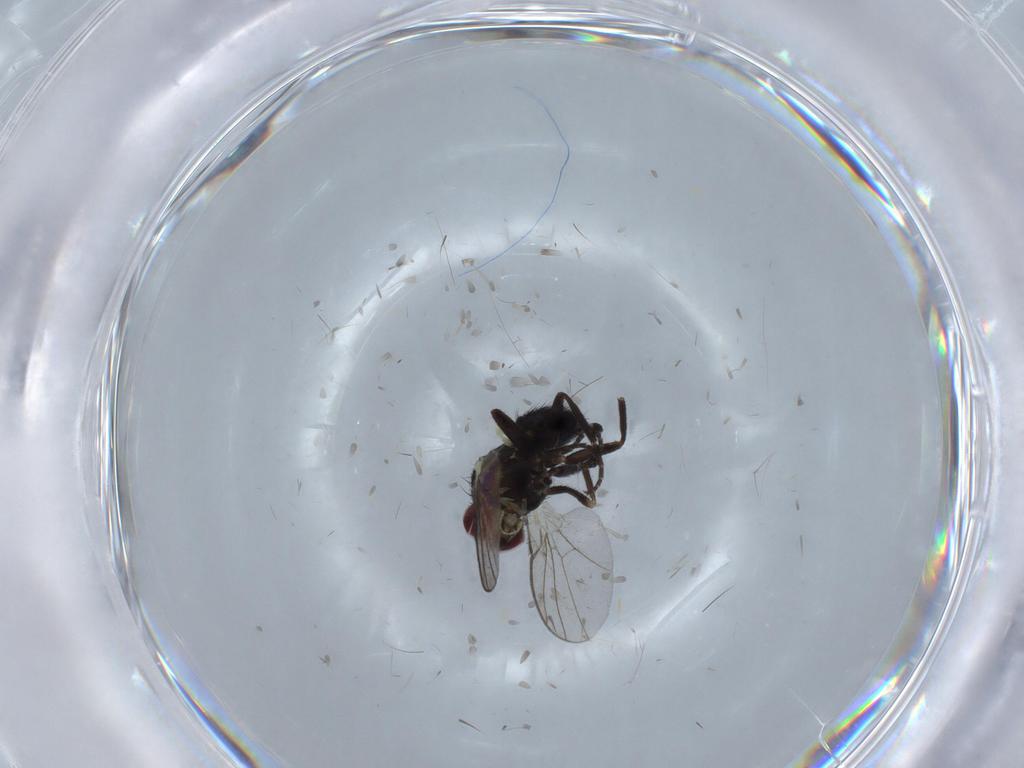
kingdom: Animalia
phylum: Arthropoda
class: Insecta
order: Diptera
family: Agromyzidae
